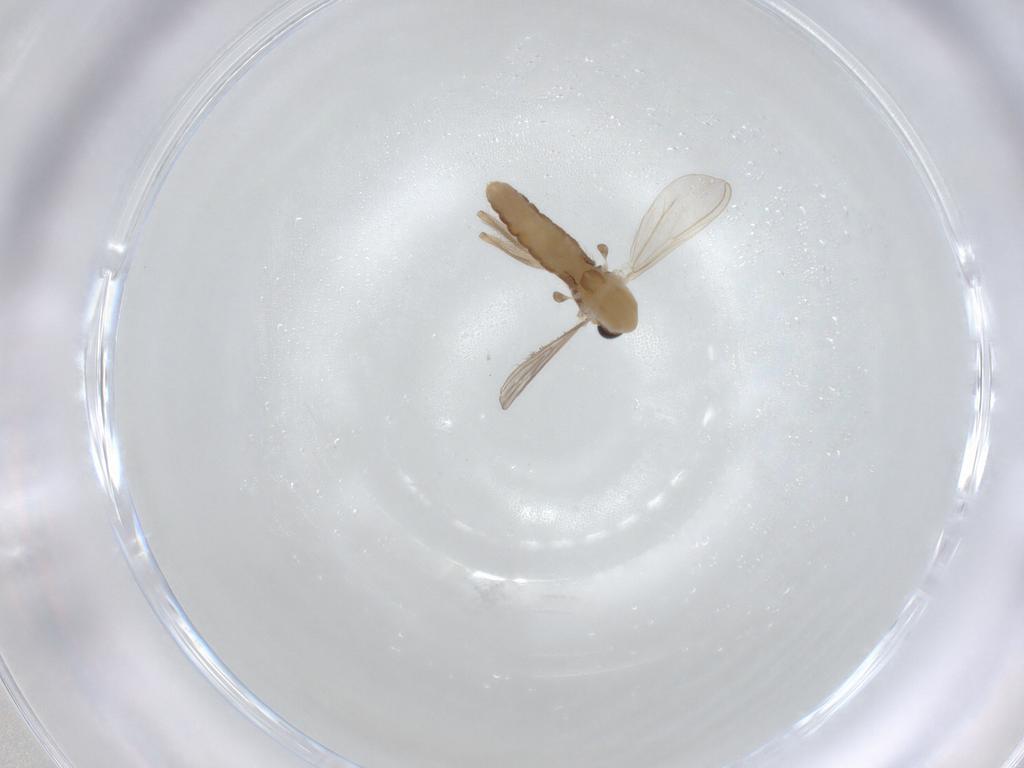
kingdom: Animalia
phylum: Arthropoda
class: Insecta
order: Diptera
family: Chironomidae
